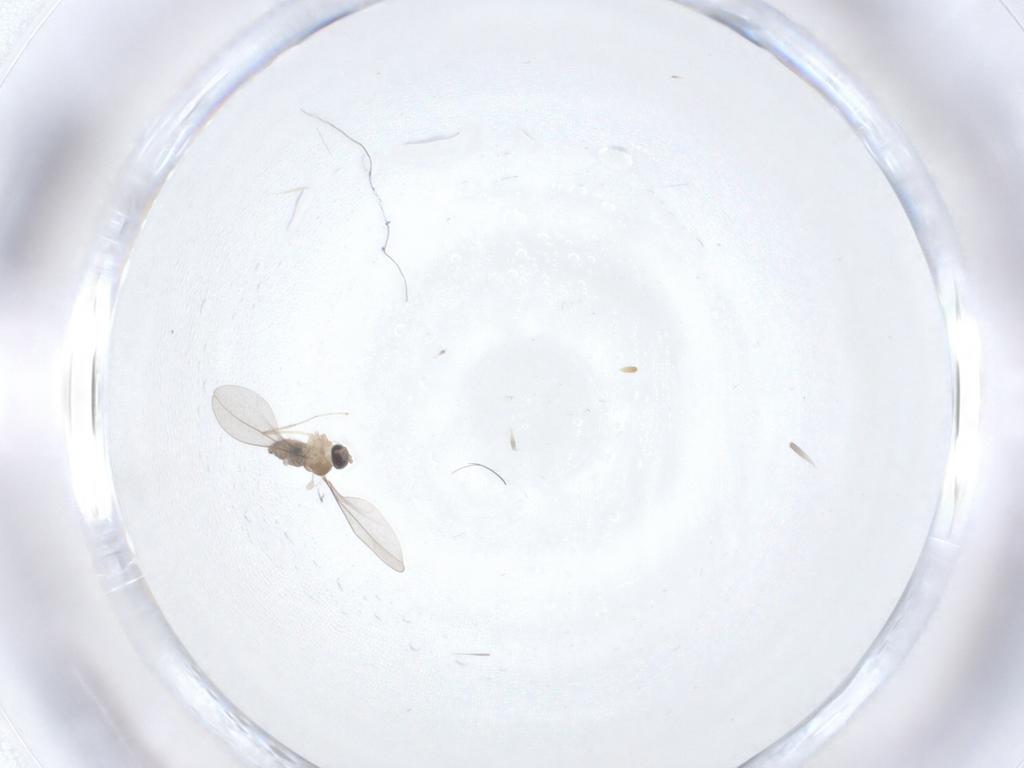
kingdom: Animalia
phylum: Arthropoda
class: Insecta
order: Diptera
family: Cecidomyiidae
